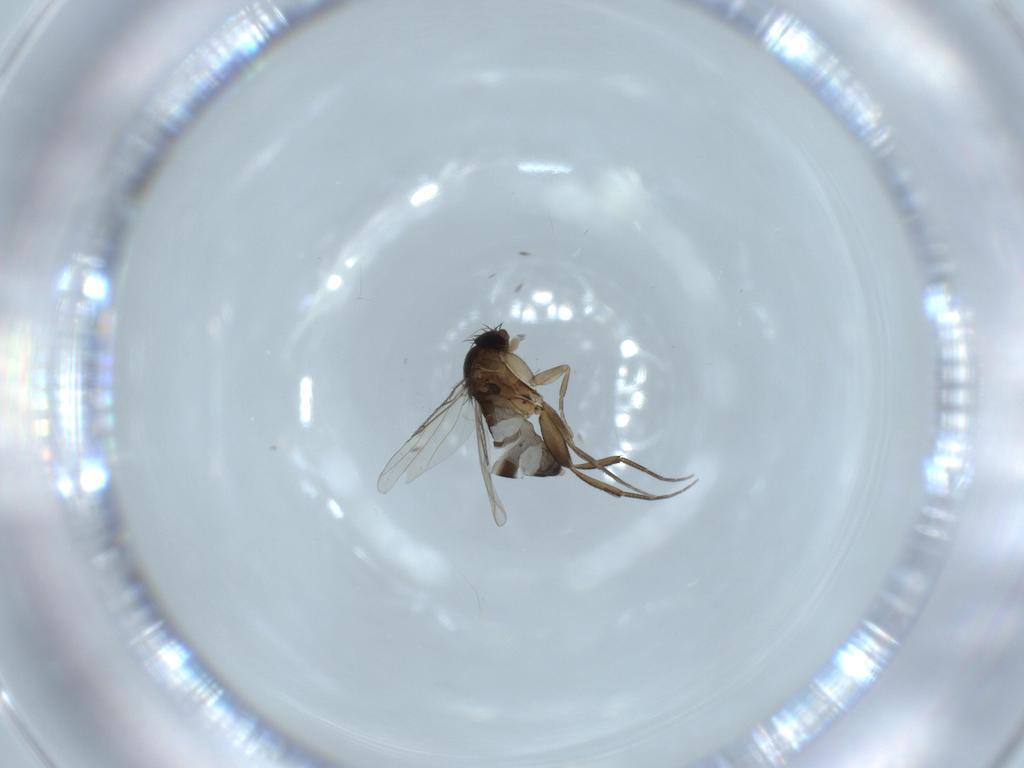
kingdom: Animalia
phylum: Arthropoda
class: Insecta
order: Diptera
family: Phoridae
